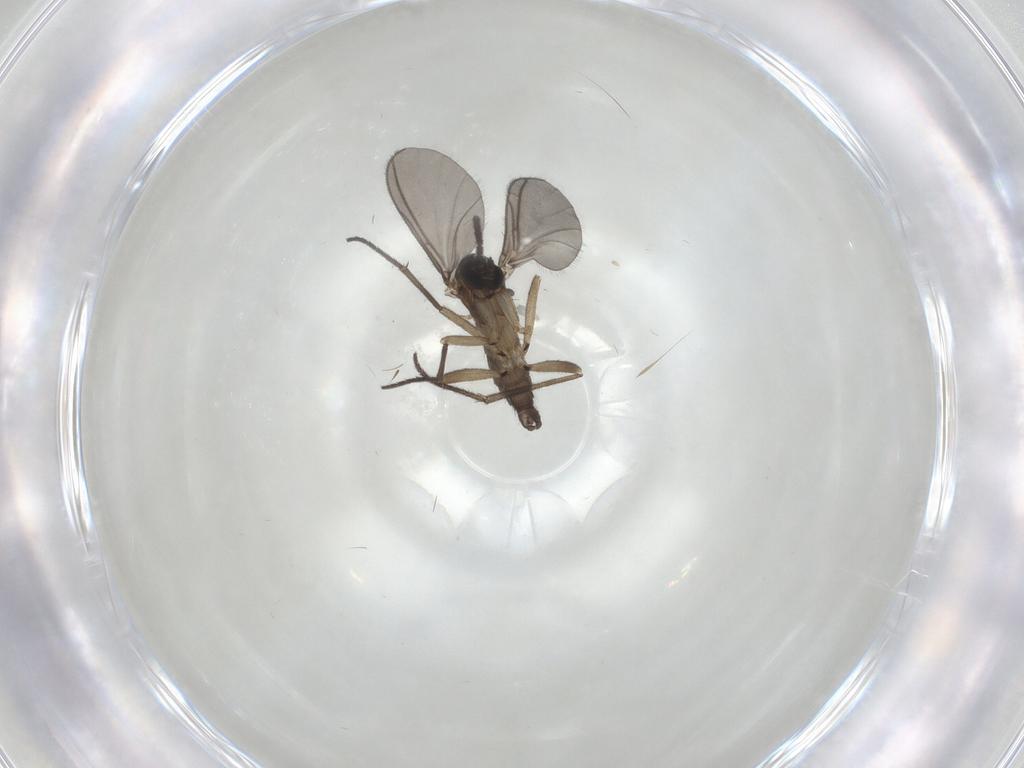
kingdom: Animalia
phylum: Arthropoda
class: Insecta
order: Diptera
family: Sciaridae
